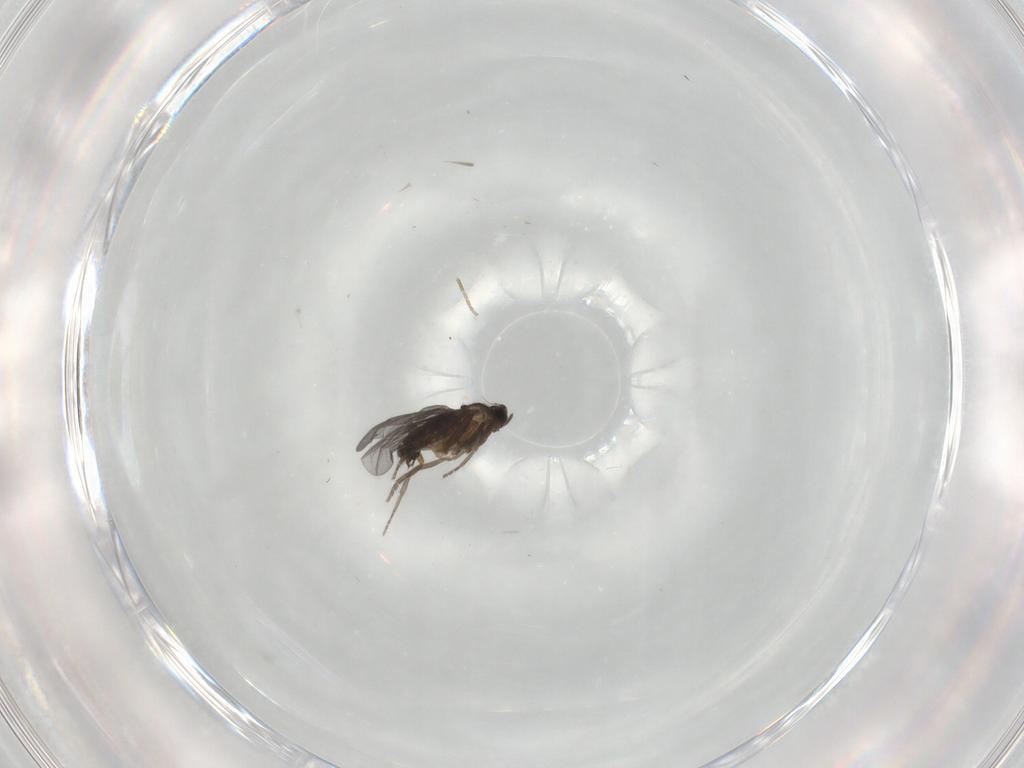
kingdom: Animalia
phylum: Arthropoda
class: Insecta
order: Diptera
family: Phoridae
